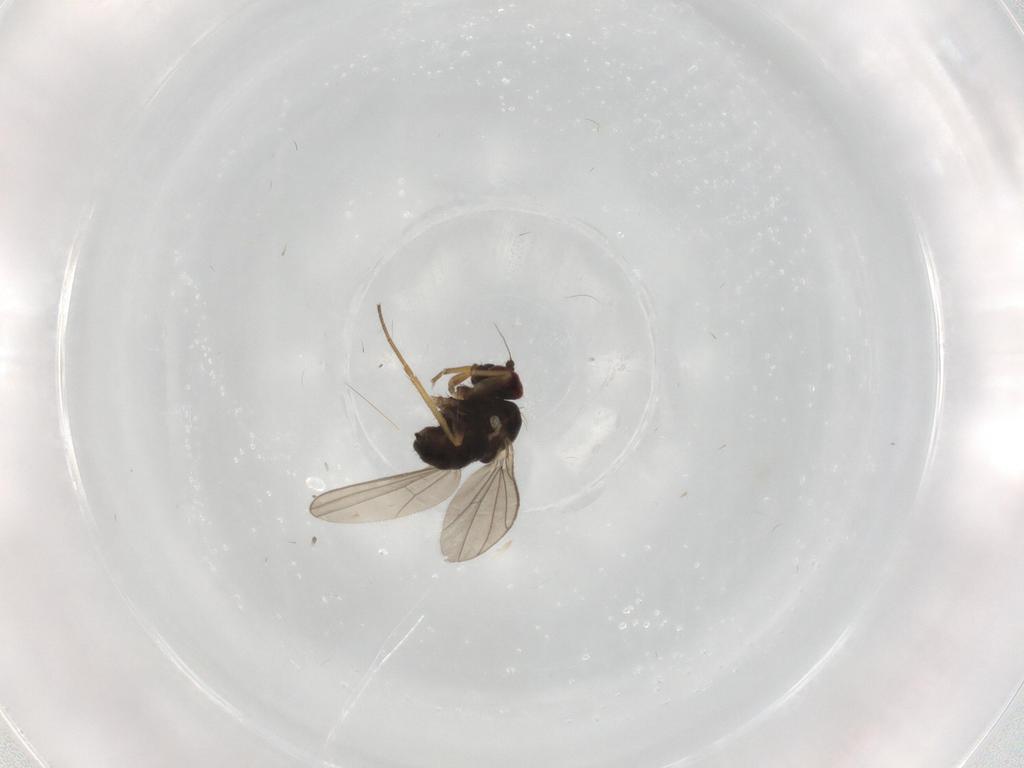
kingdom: Animalia
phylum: Arthropoda
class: Insecta
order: Diptera
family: Dolichopodidae
